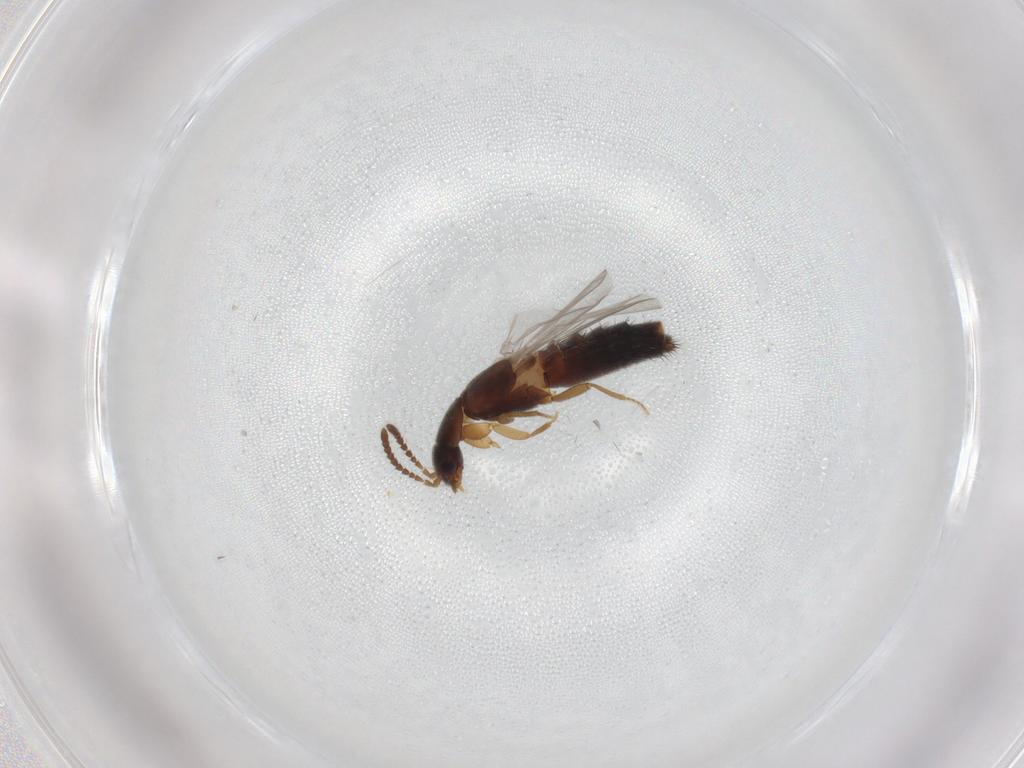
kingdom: Animalia
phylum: Arthropoda
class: Insecta
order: Coleoptera
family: Staphylinidae
